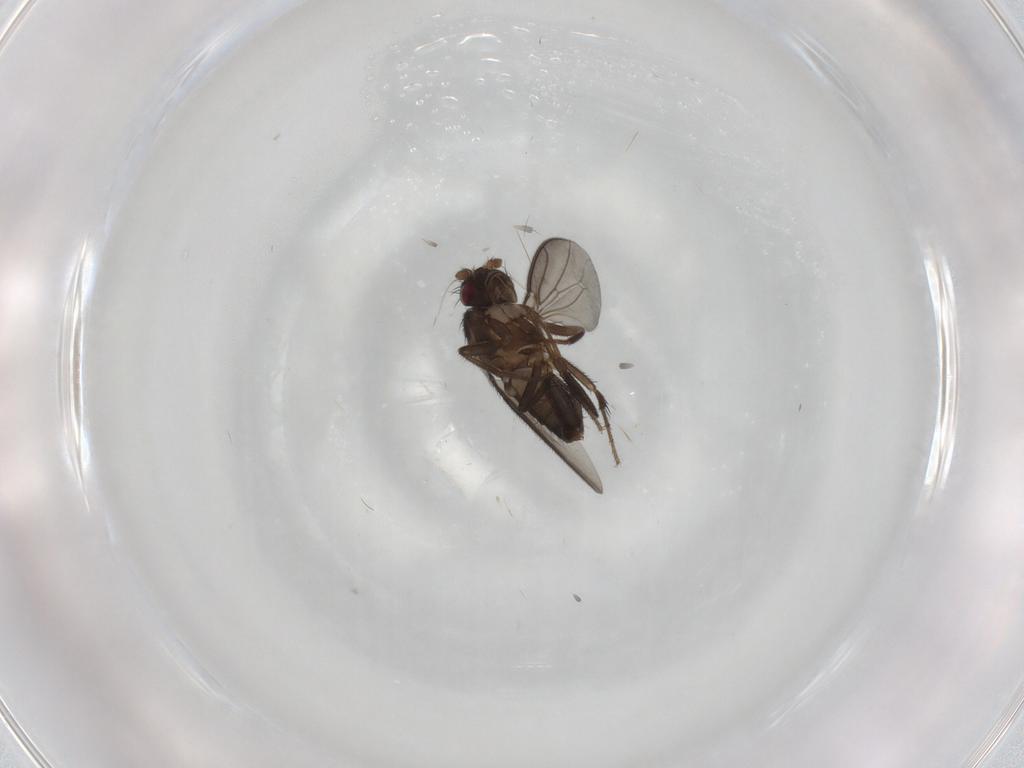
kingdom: Animalia
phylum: Arthropoda
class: Insecta
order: Diptera
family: Sphaeroceridae
